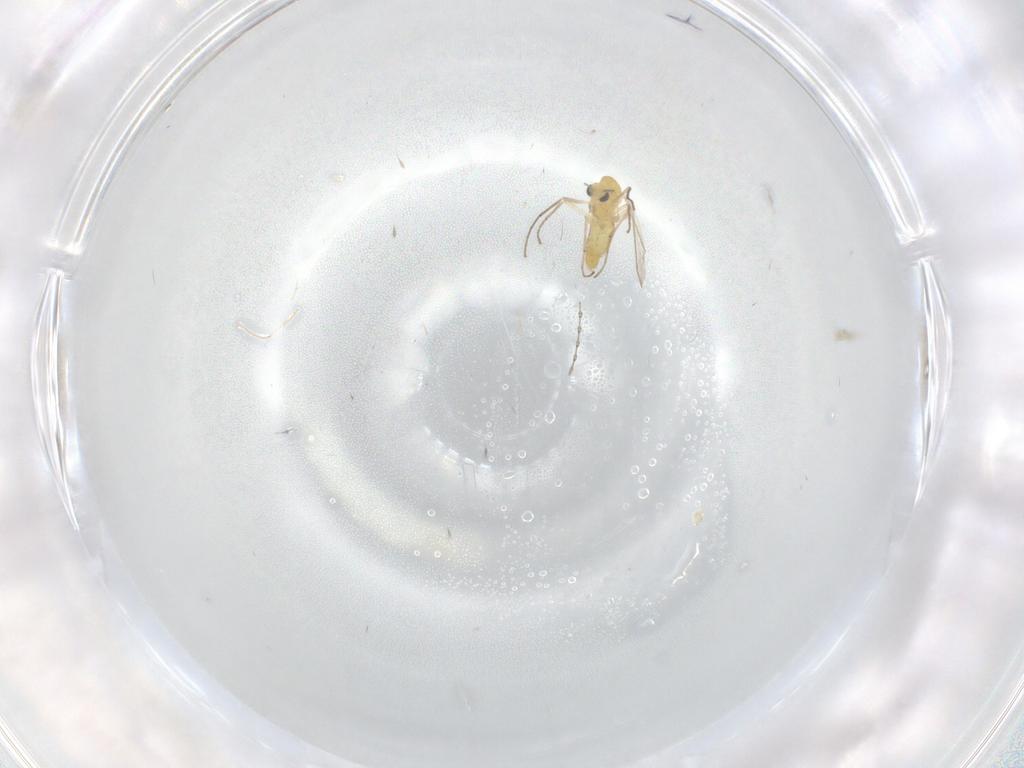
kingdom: Animalia
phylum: Arthropoda
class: Insecta
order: Diptera
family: Chironomidae
